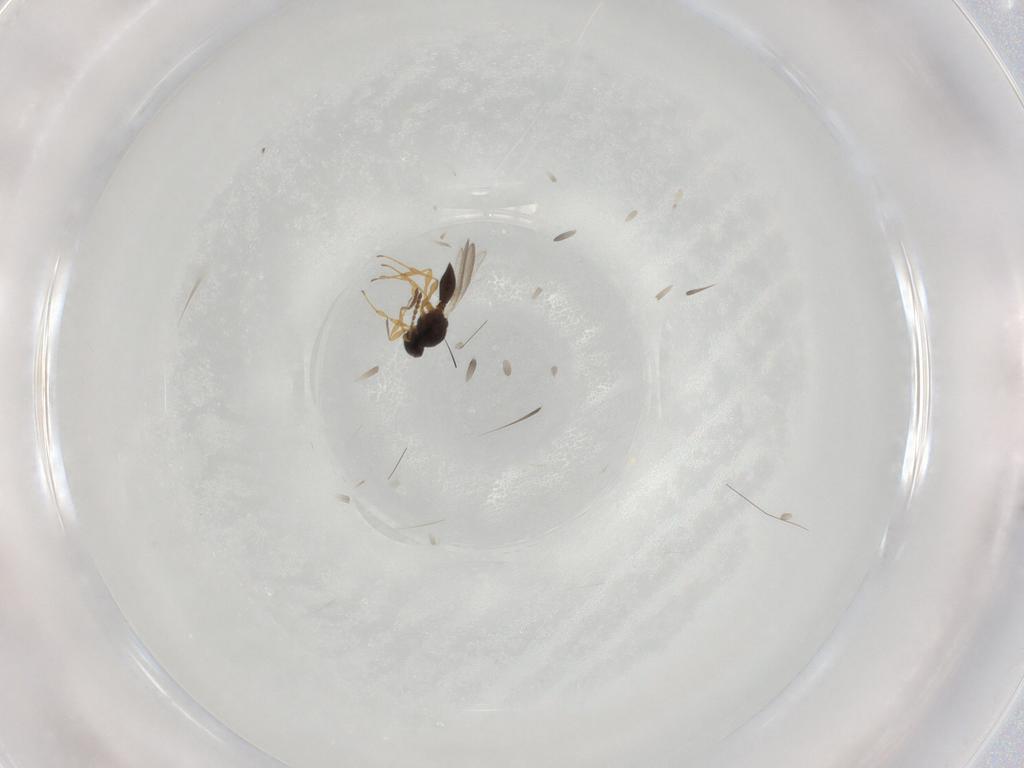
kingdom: Animalia
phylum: Arthropoda
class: Insecta
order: Hymenoptera
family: Platygastridae
